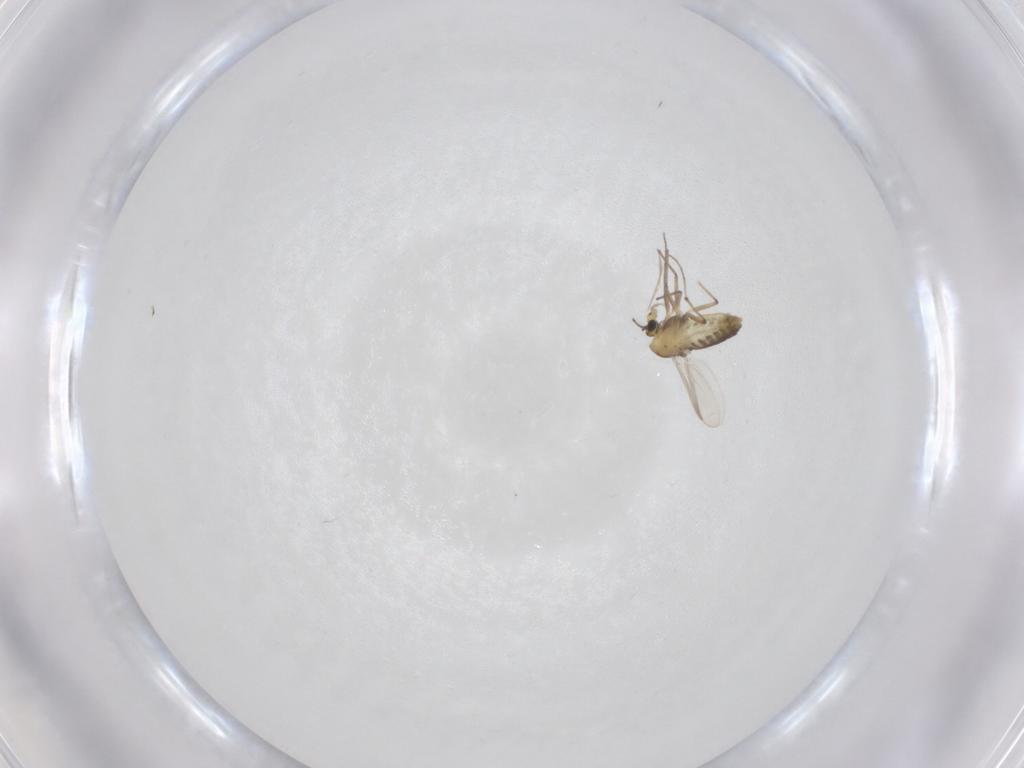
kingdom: Animalia
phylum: Arthropoda
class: Insecta
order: Diptera
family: Chironomidae
